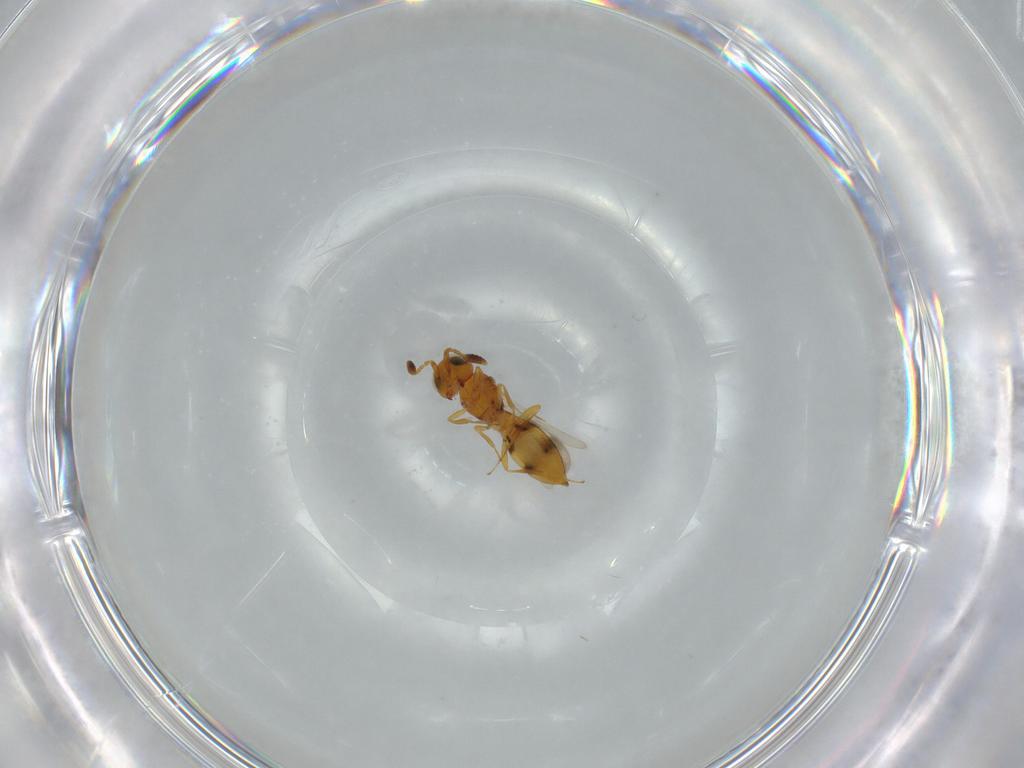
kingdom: Animalia
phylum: Arthropoda
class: Insecta
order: Hymenoptera
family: Scelionidae
